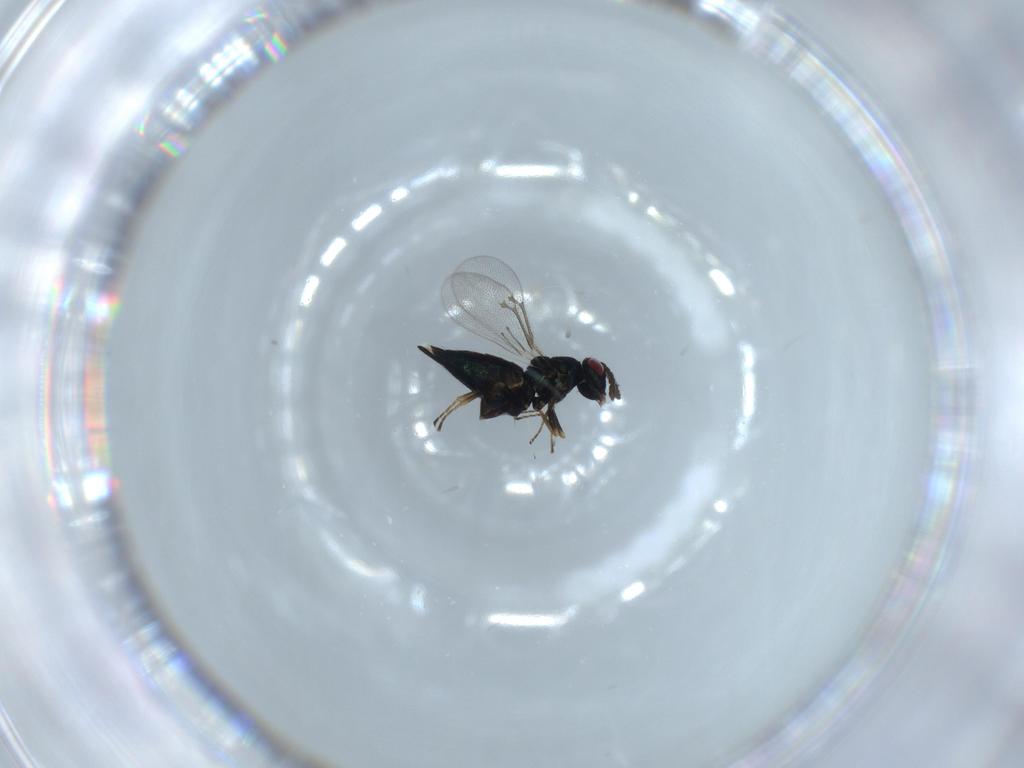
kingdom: Animalia
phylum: Arthropoda
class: Insecta
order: Hymenoptera
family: Eulophidae
